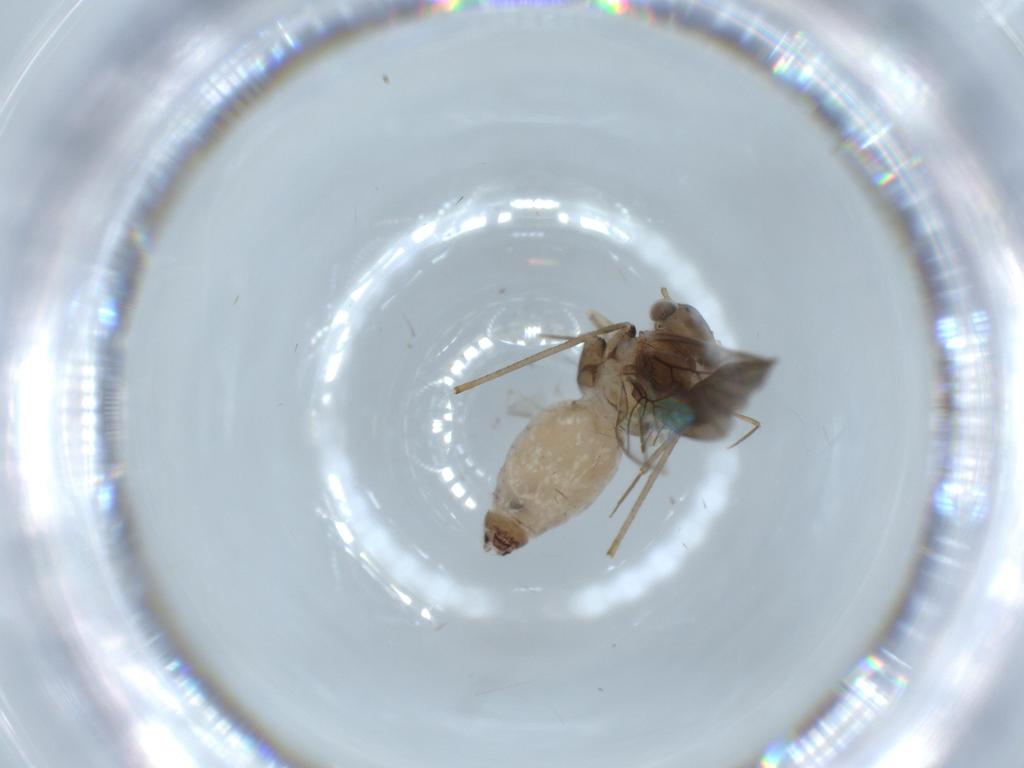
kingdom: Animalia
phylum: Arthropoda
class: Insecta
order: Psocodea
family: Lepidopsocidae
